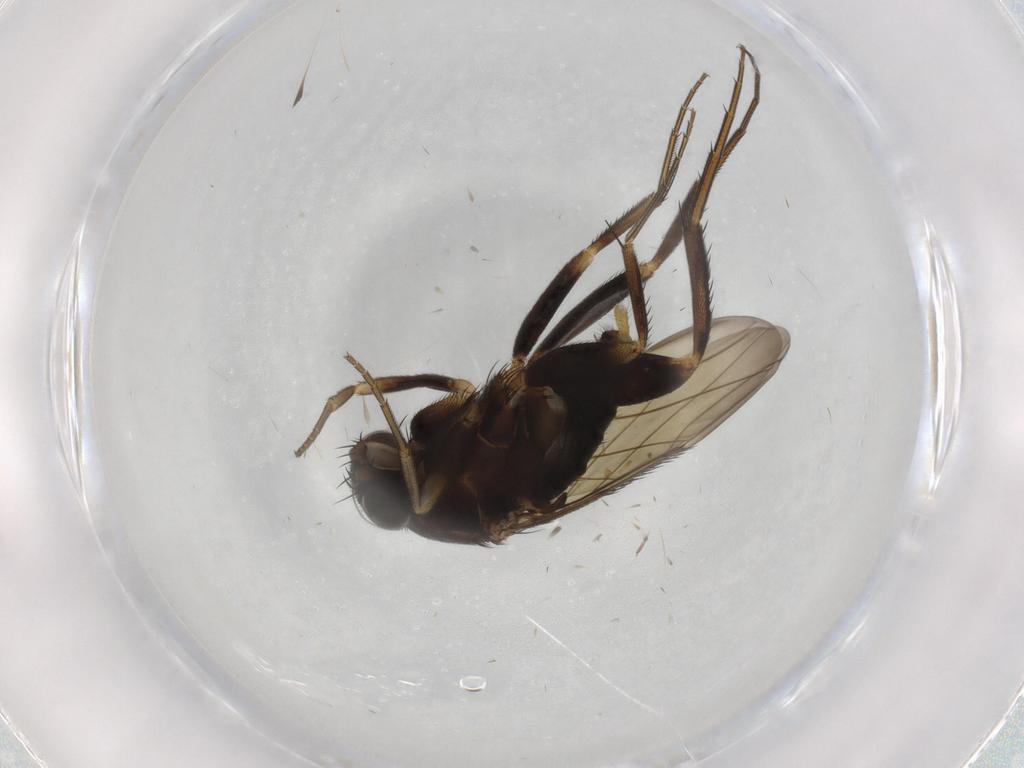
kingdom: Animalia
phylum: Arthropoda
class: Insecta
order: Diptera
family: Phoridae
